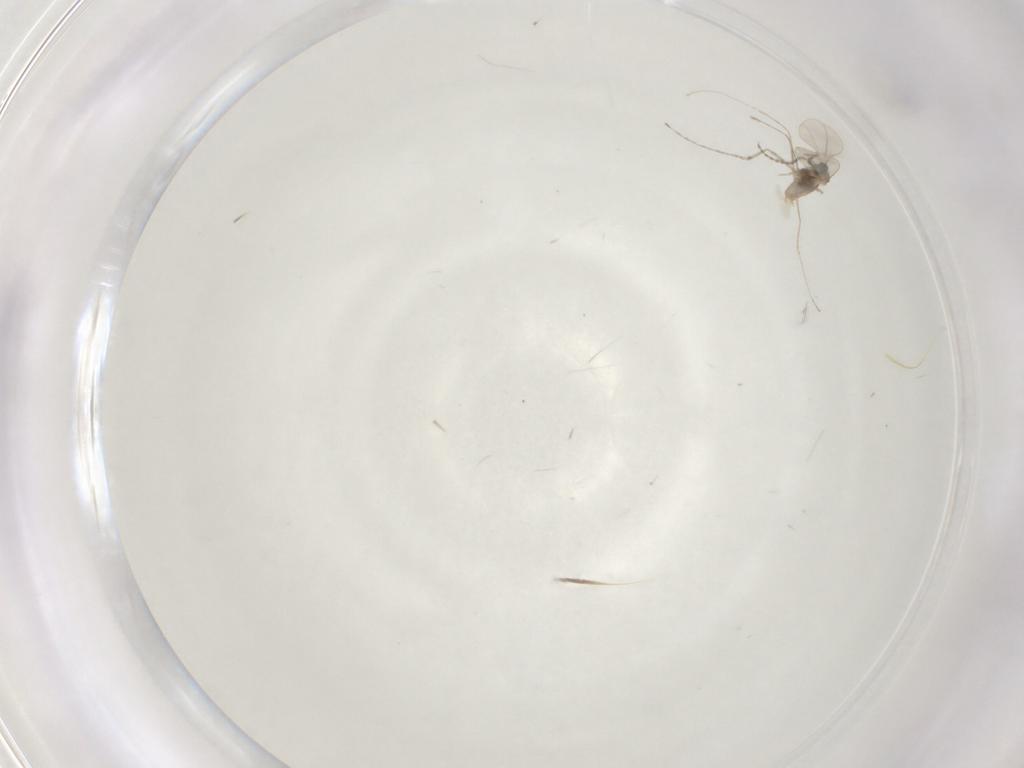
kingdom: Animalia
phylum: Arthropoda
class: Insecta
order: Diptera
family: Cecidomyiidae
